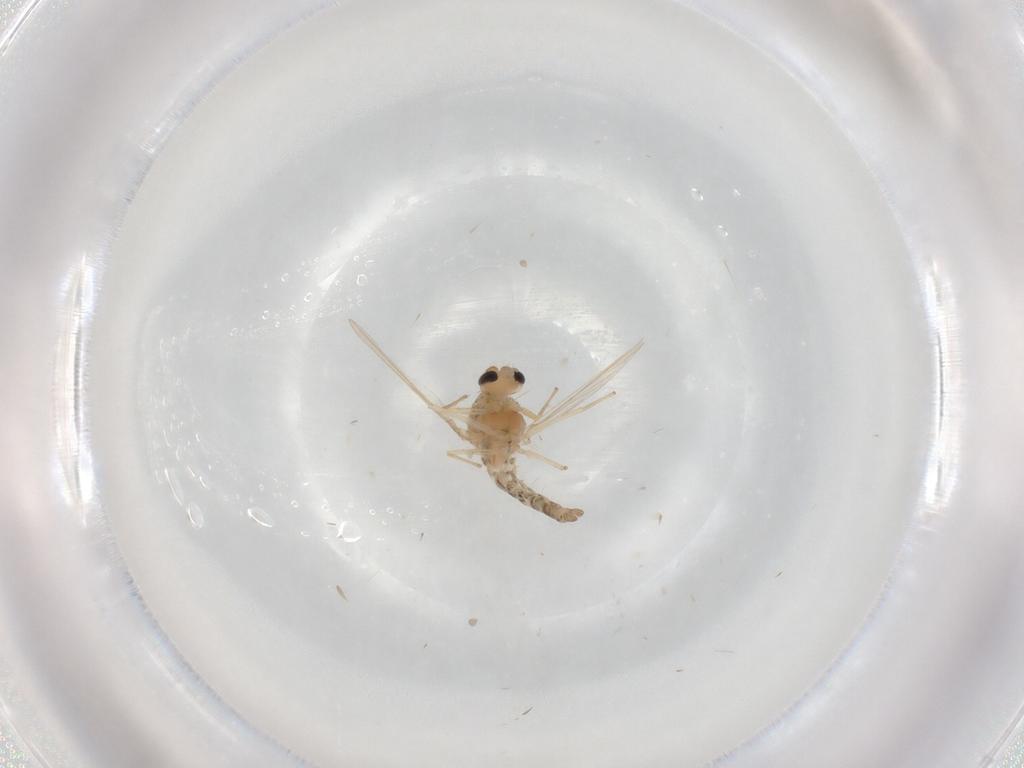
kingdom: Animalia
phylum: Arthropoda
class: Insecta
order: Diptera
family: Chironomidae
